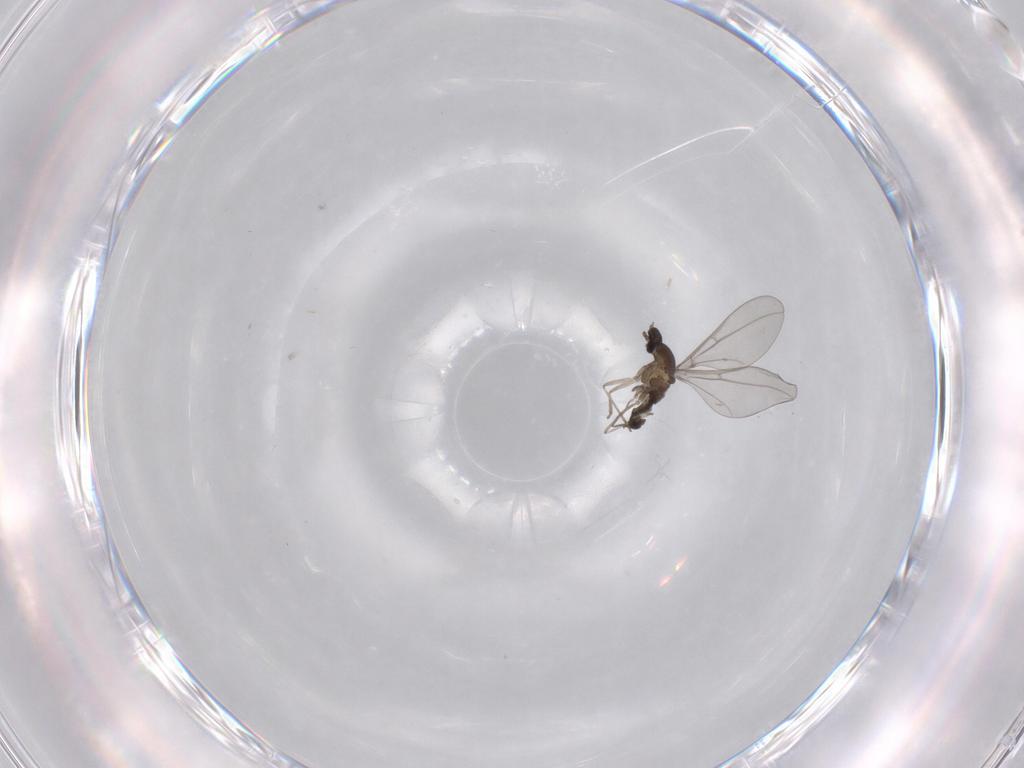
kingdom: Animalia
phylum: Arthropoda
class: Insecta
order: Diptera
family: Cecidomyiidae
